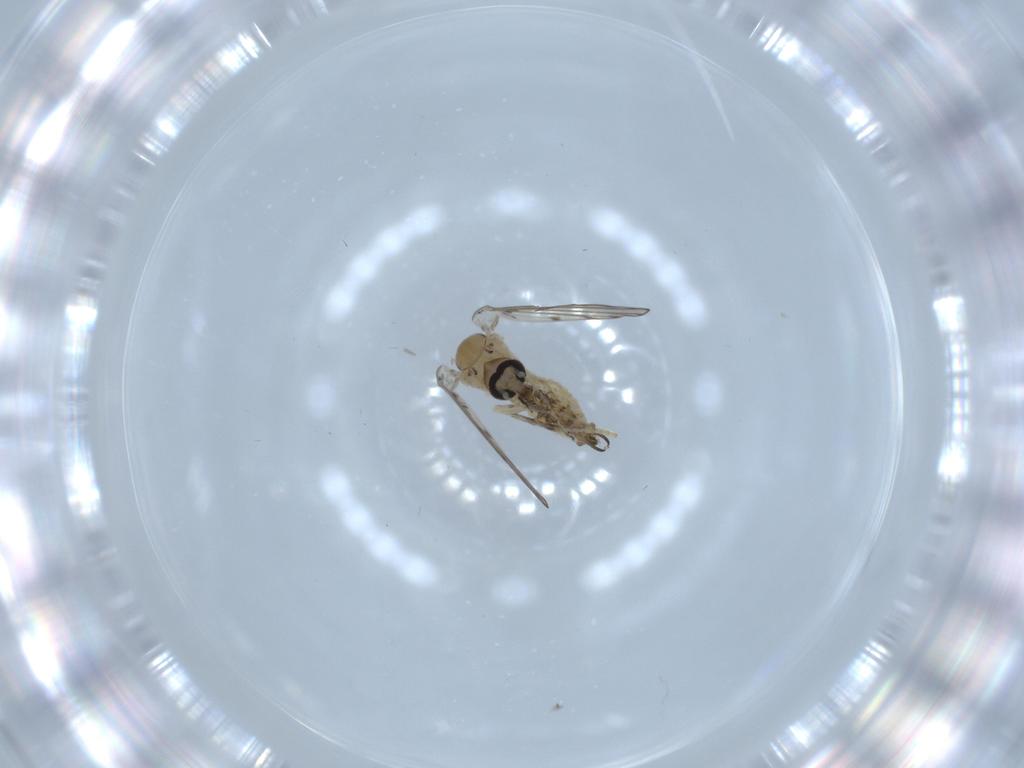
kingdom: Animalia
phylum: Arthropoda
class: Insecta
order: Diptera
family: Psychodidae
